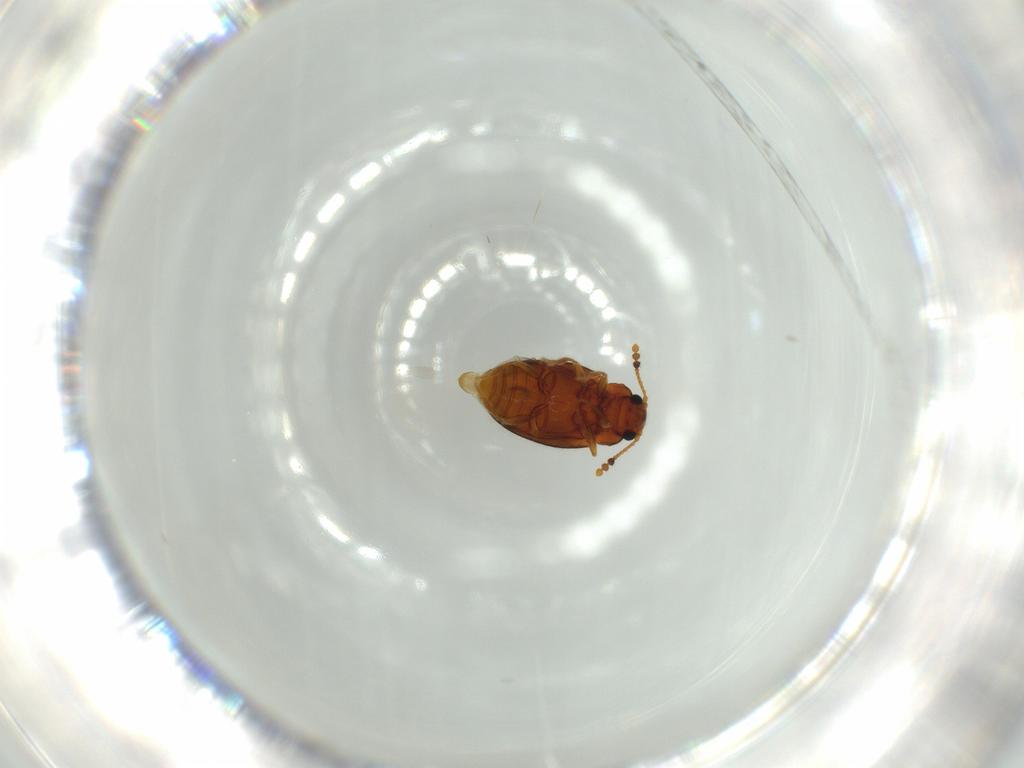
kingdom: Animalia
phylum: Arthropoda
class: Insecta
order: Coleoptera
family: Erotylidae
